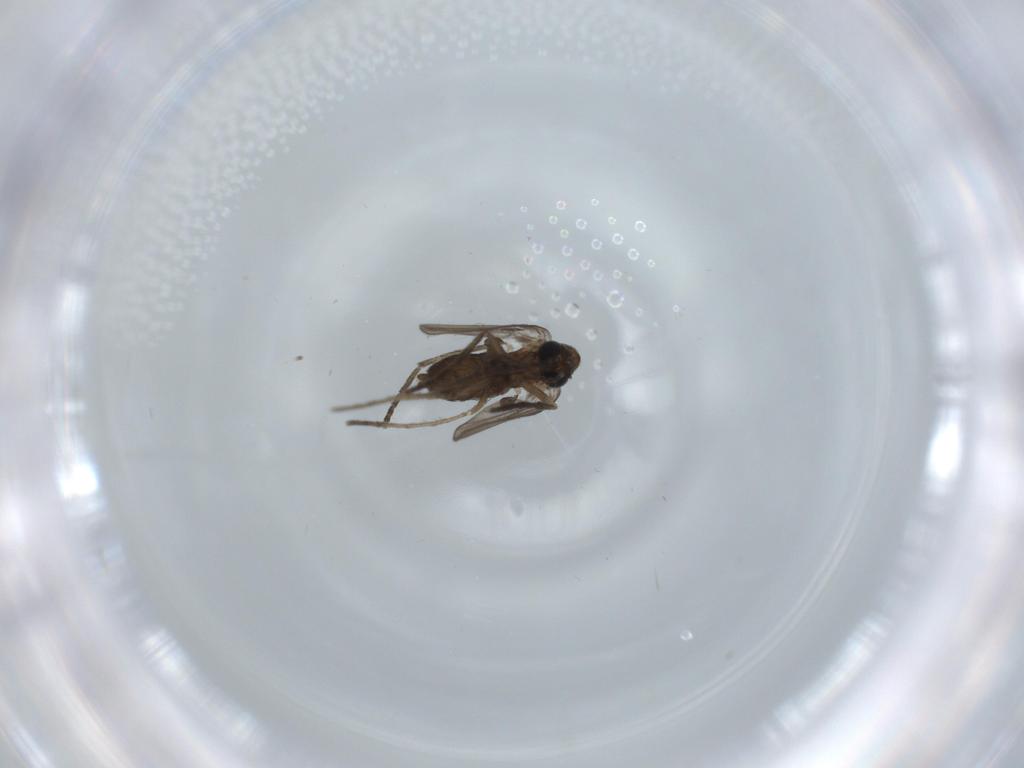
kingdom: Animalia
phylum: Arthropoda
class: Insecta
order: Diptera
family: Psychodidae
